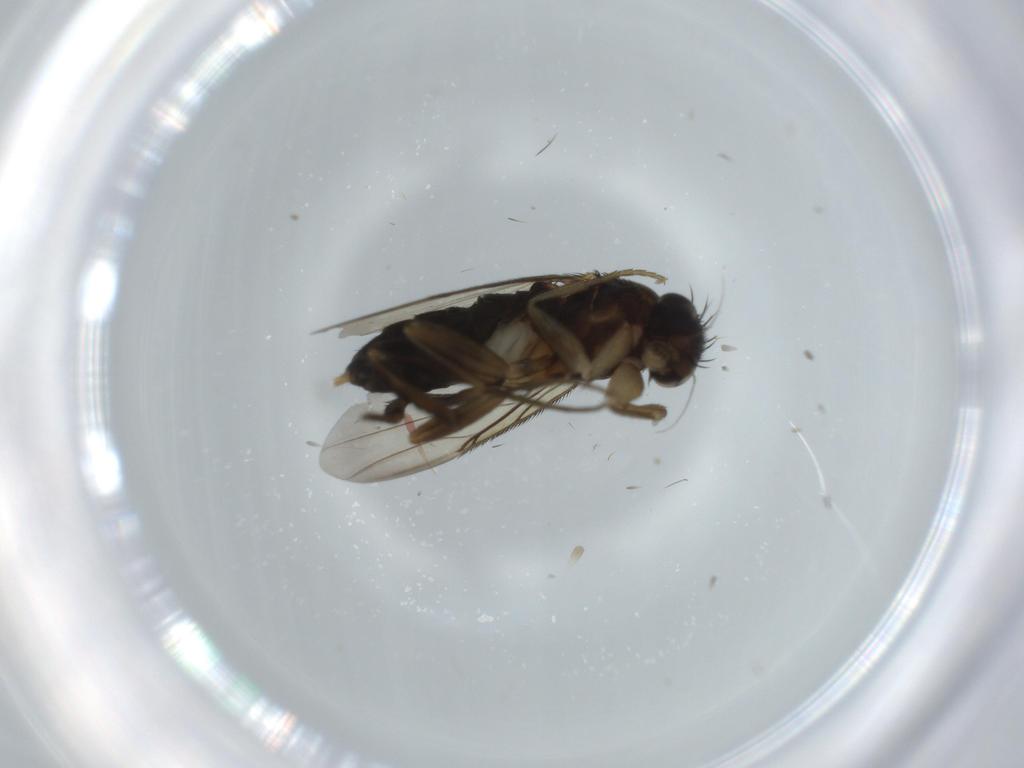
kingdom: Animalia
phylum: Arthropoda
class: Insecta
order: Diptera
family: Phoridae
